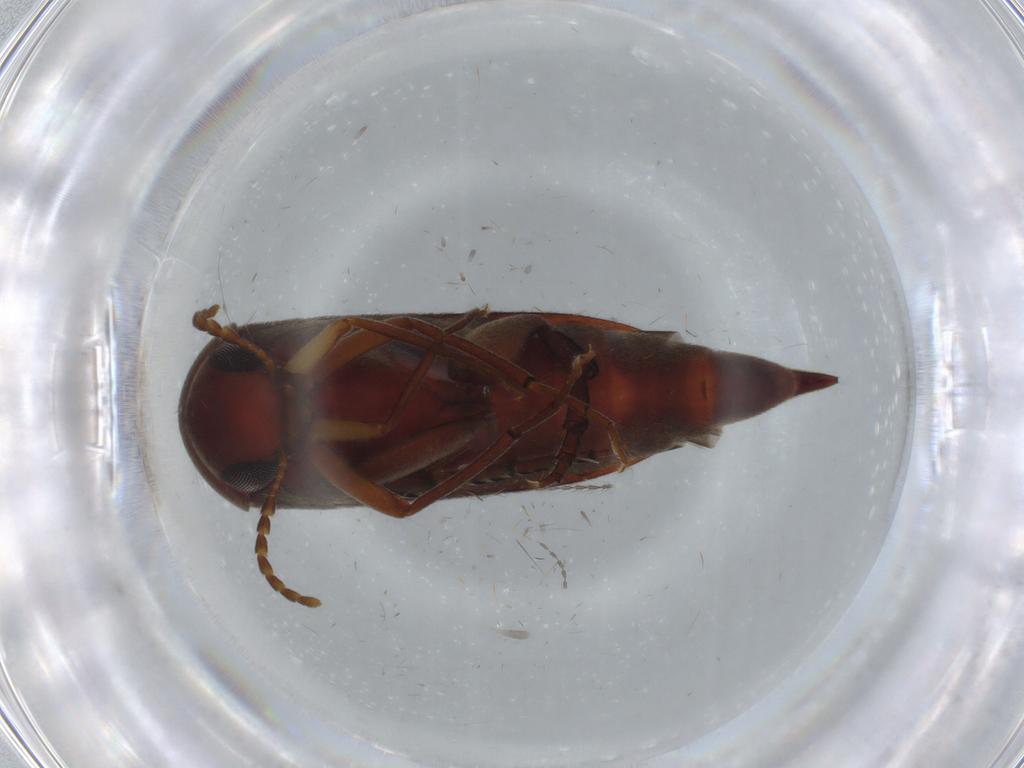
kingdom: Animalia
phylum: Arthropoda
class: Insecta
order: Coleoptera
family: Mordellidae
